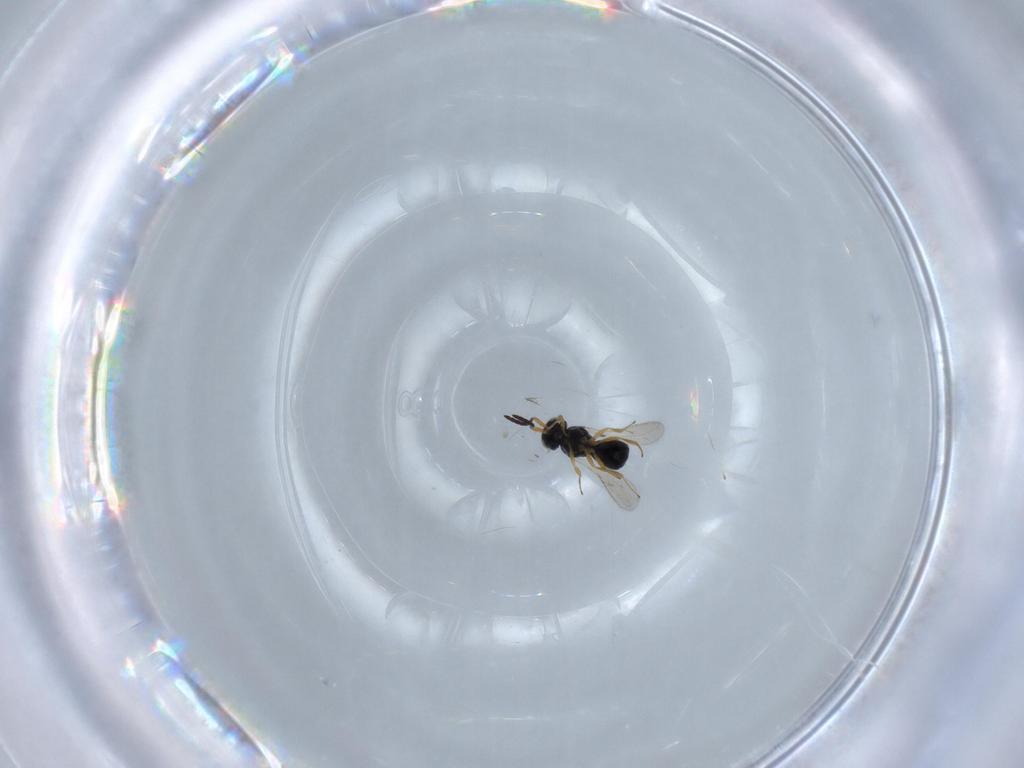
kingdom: Animalia
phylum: Arthropoda
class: Insecta
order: Hymenoptera
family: Scelionidae
